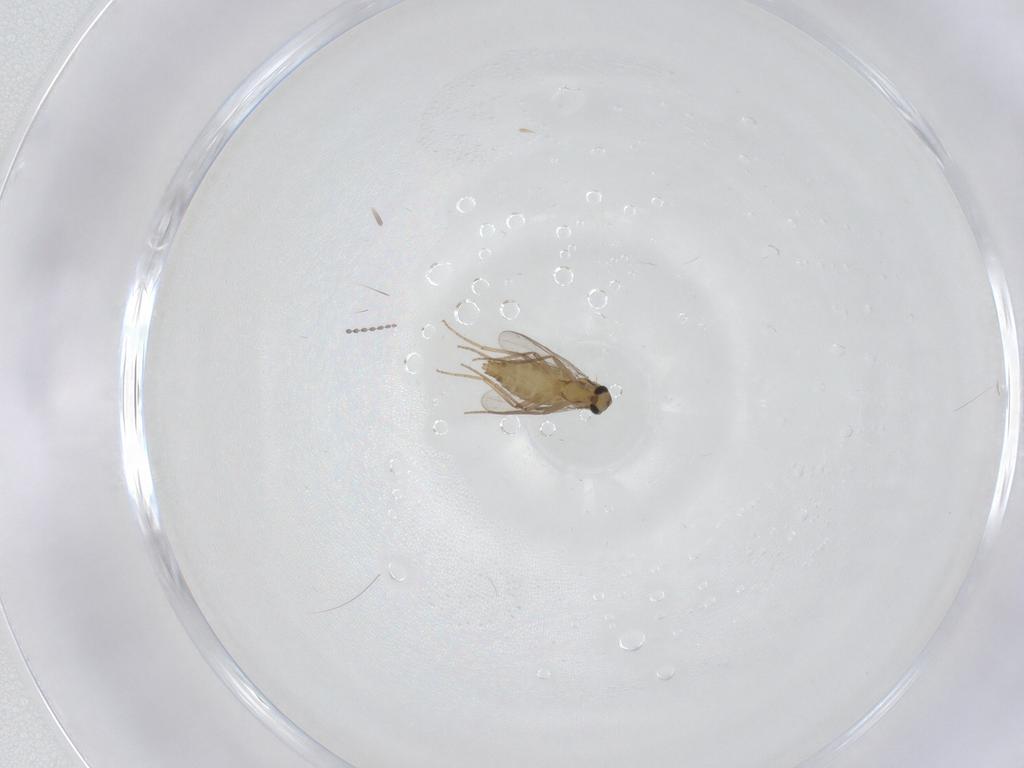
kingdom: Animalia
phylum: Arthropoda
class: Insecta
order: Diptera
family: Chironomidae
